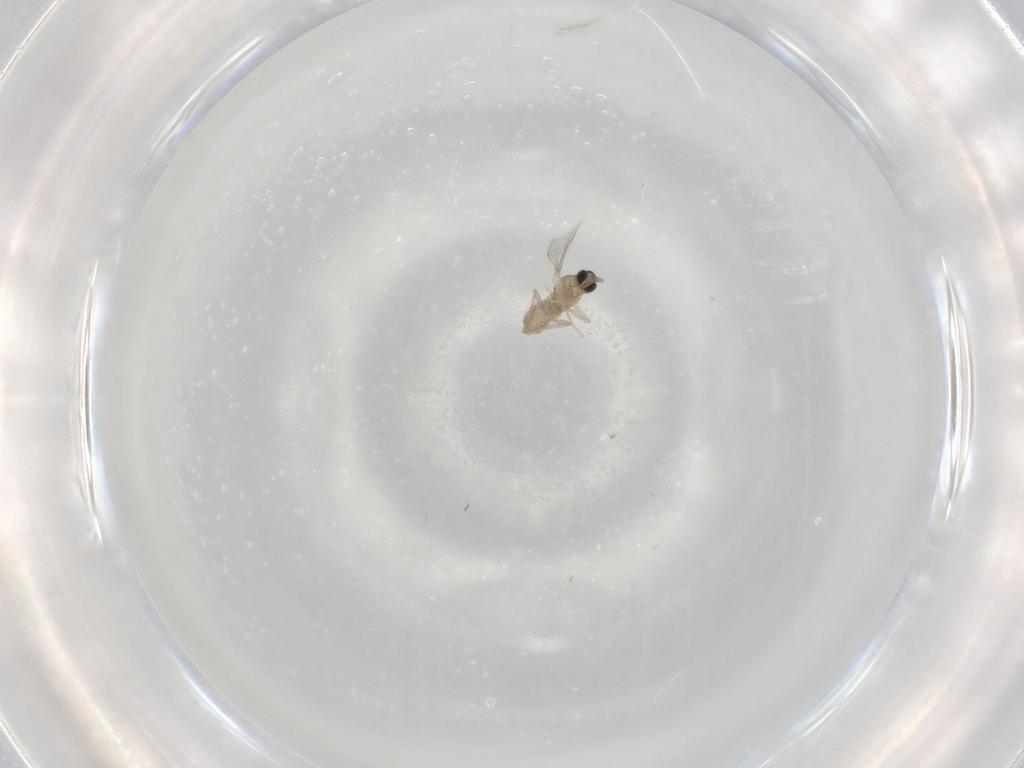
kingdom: Animalia
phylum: Arthropoda
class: Insecta
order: Diptera
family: Cecidomyiidae
